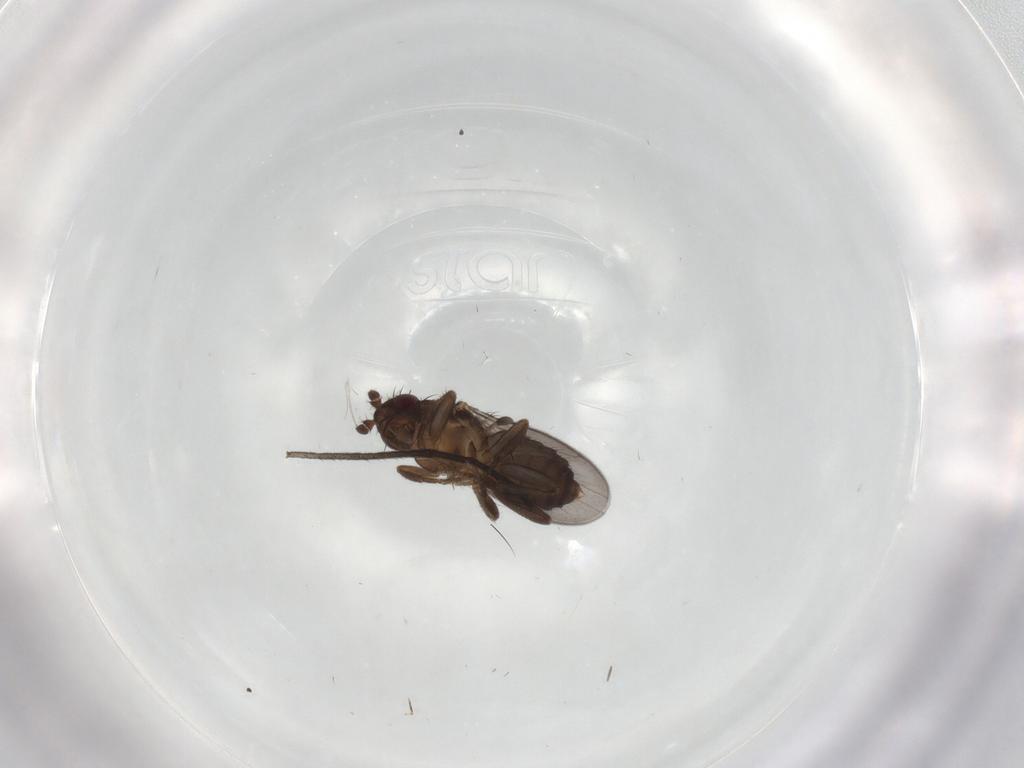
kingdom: Animalia
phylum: Arthropoda
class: Insecta
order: Diptera
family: Sphaeroceridae
